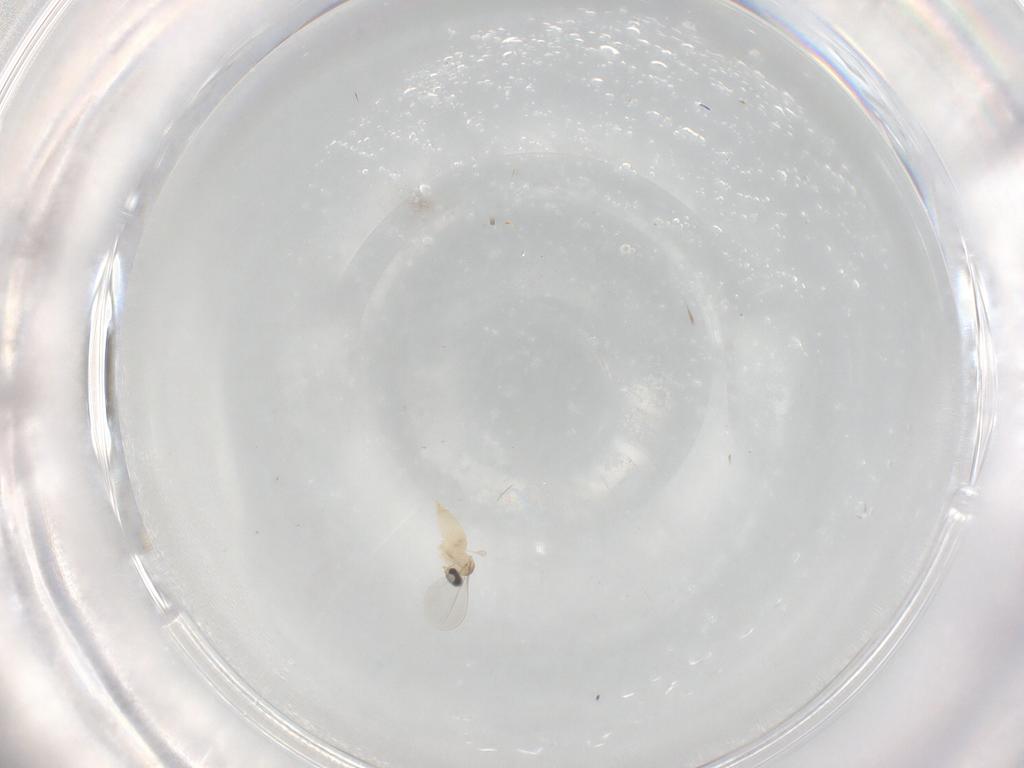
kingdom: Animalia
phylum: Arthropoda
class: Insecta
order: Diptera
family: Cecidomyiidae
